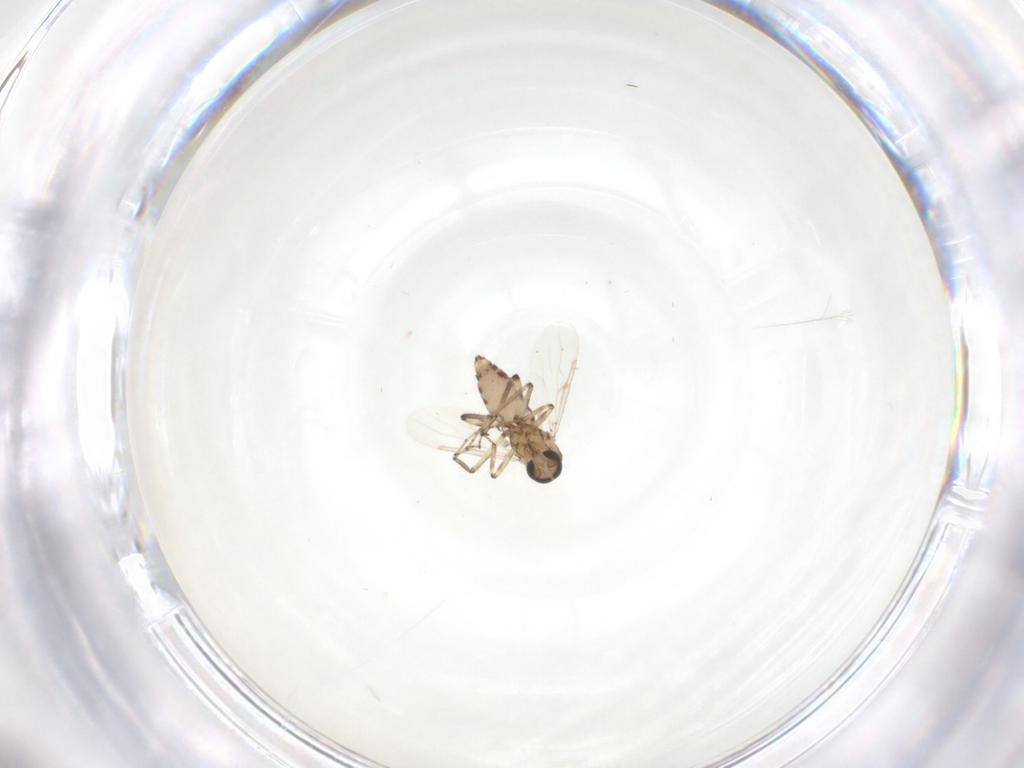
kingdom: Animalia
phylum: Arthropoda
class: Insecta
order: Diptera
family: Ceratopogonidae
